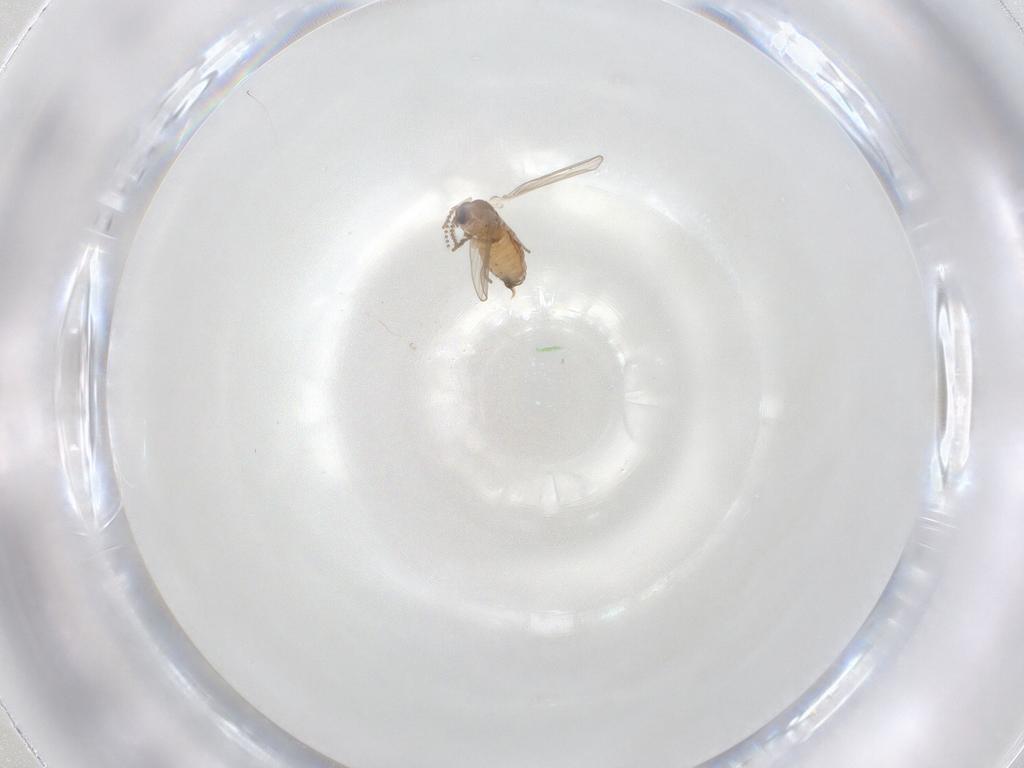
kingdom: Animalia
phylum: Arthropoda
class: Insecta
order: Diptera
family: Psychodidae
